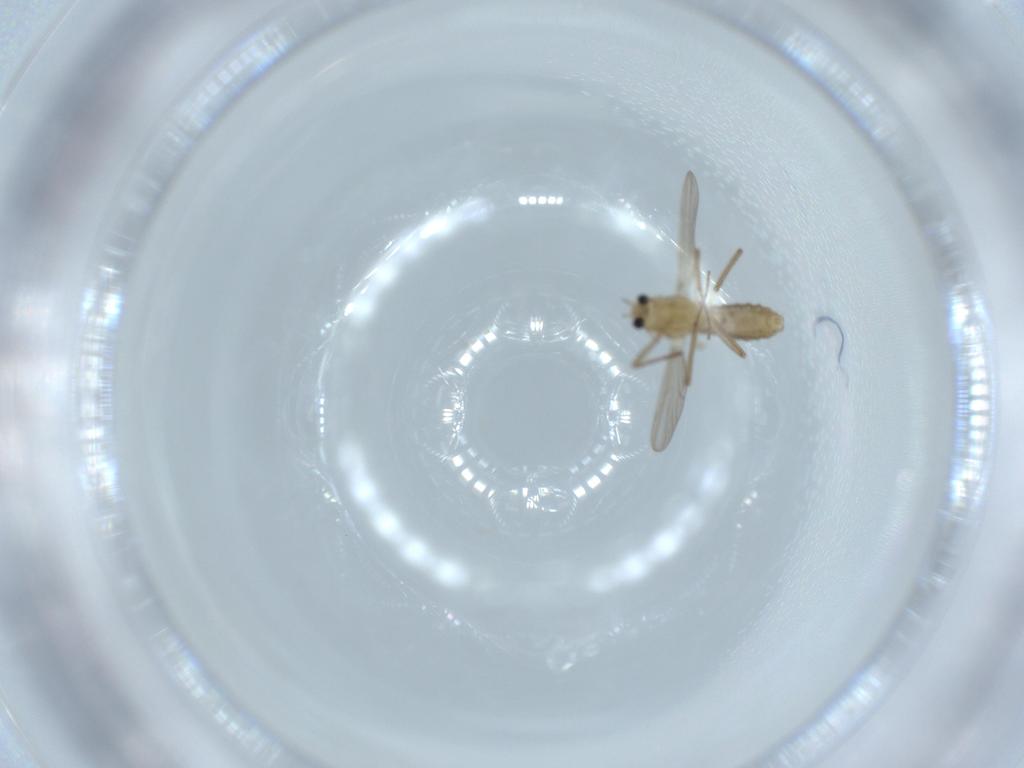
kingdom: Animalia
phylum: Arthropoda
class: Insecta
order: Diptera
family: Chironomidae
